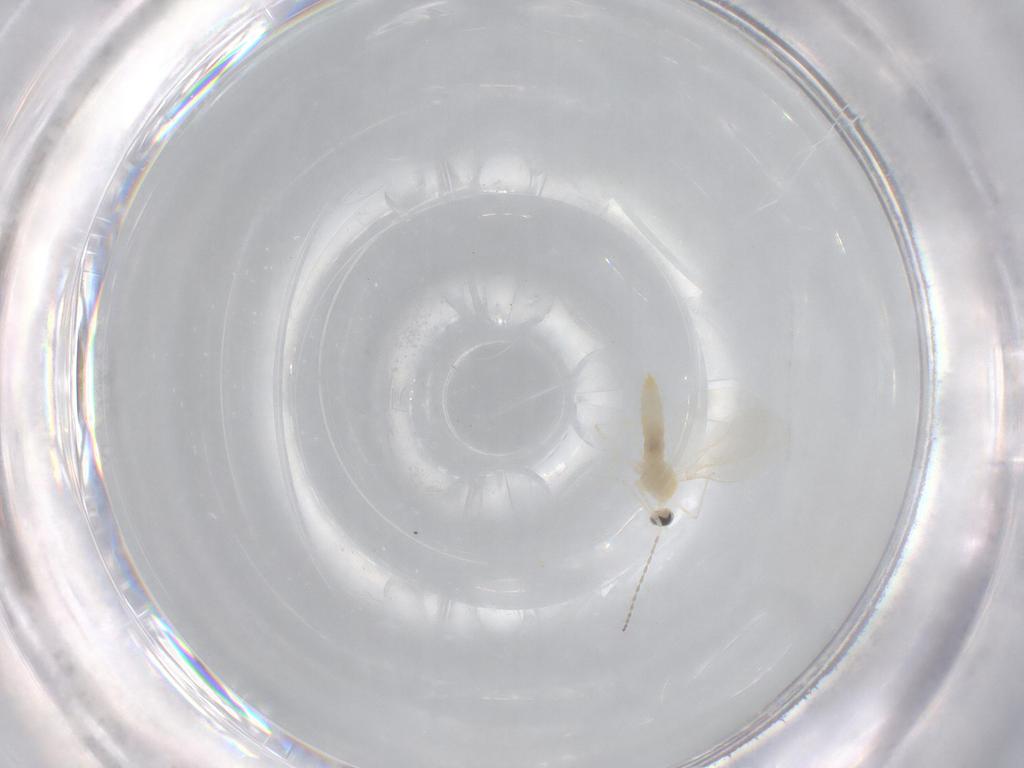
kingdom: Animalia
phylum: Arthropoda
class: Insecta
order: Diptera
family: Cecidomyiidae
